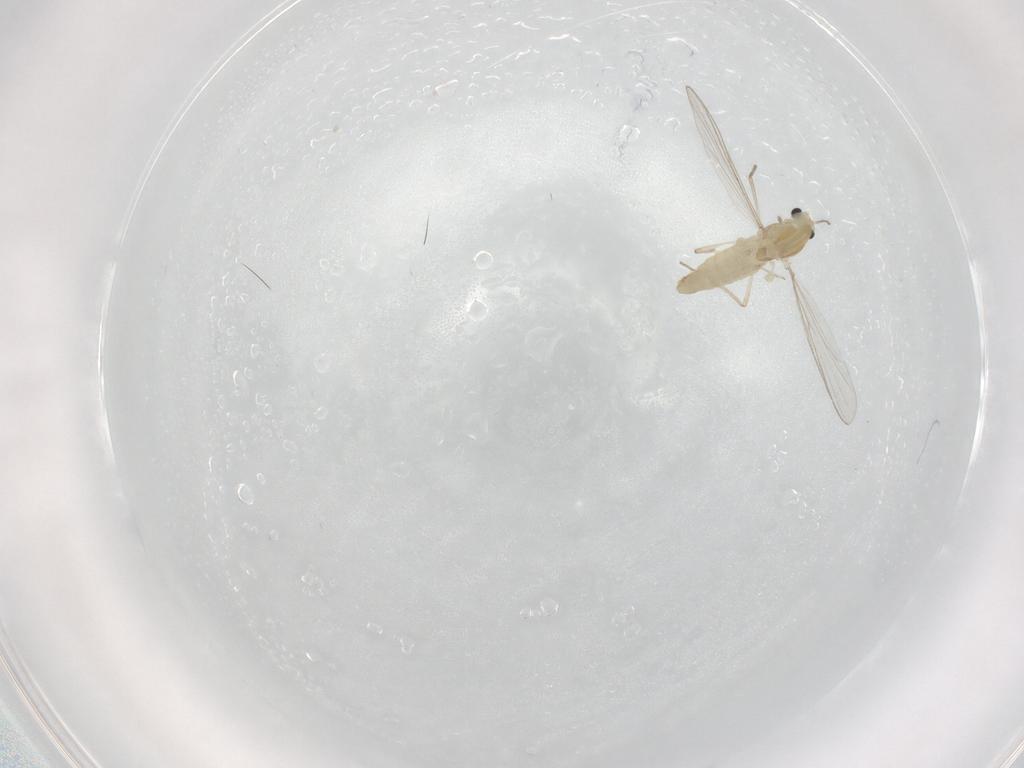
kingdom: Animalia
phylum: Arthropoda
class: Insecta
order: Diptera
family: Chironomidae
